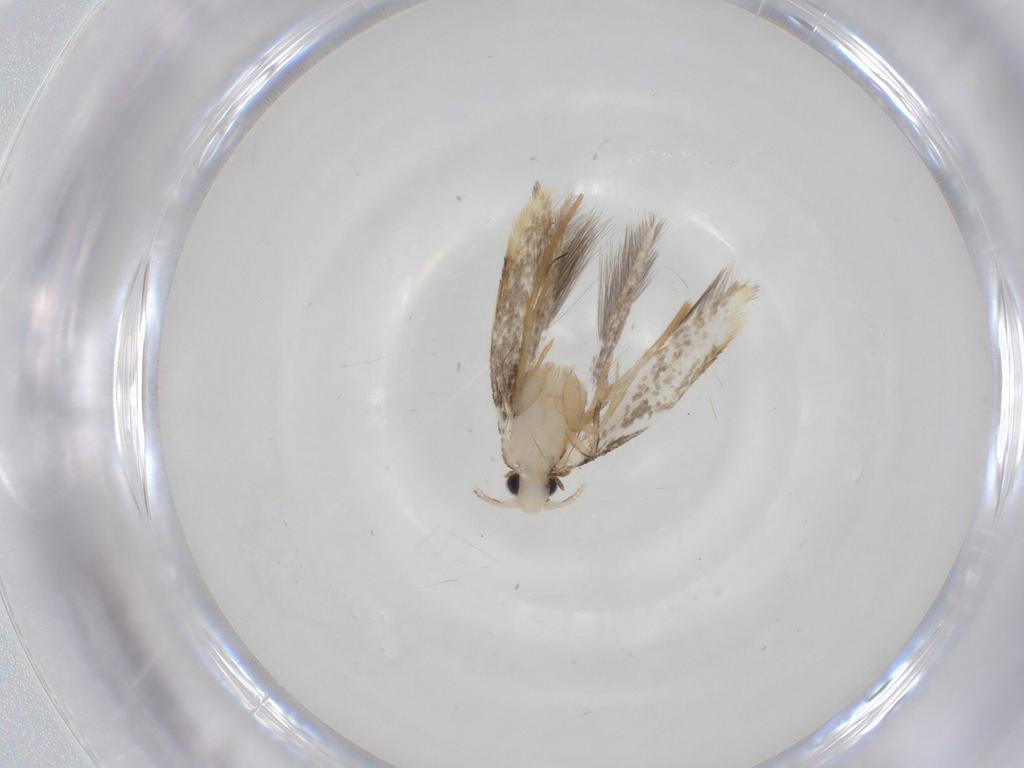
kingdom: Animalia
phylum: Arthropoda
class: Insecta
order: Lepidoptera
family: Tineidae
